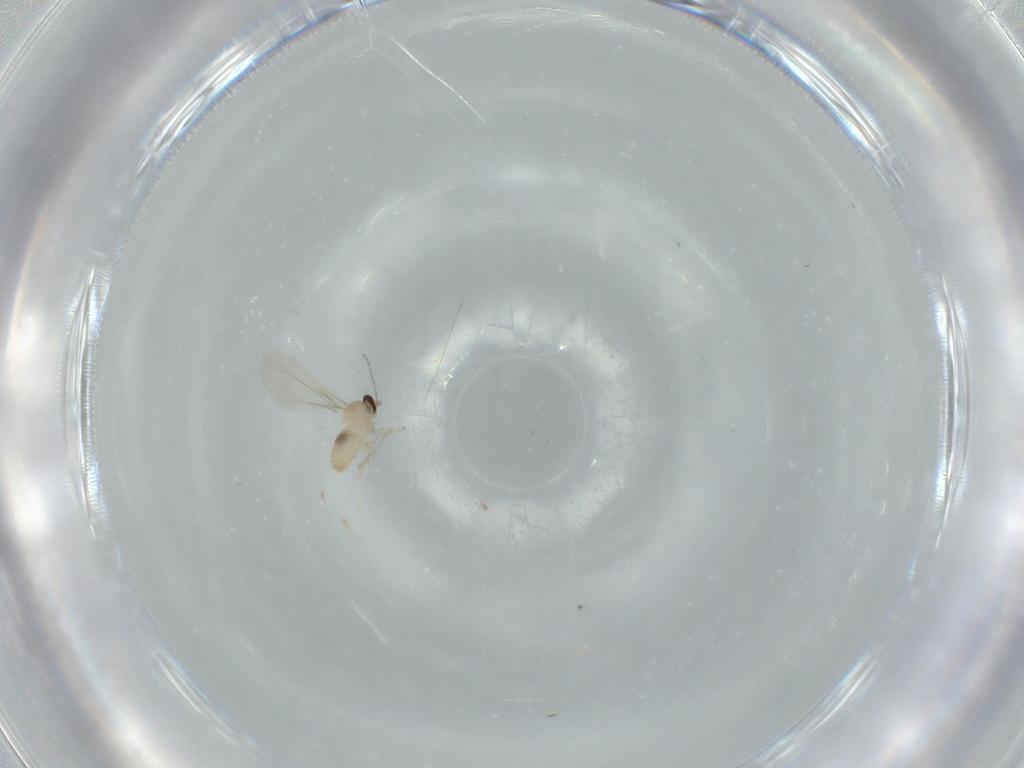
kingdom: Animalia
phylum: Arthropoda
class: Insecta
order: Diptera
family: Cecidomyiidae
